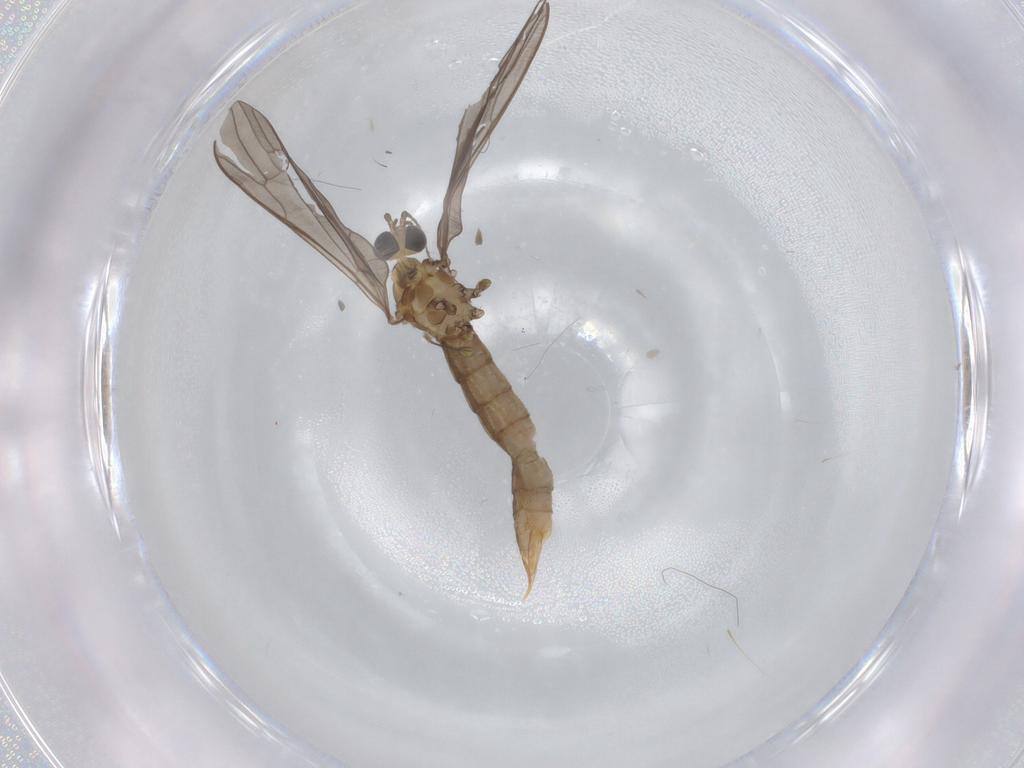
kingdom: Animalia
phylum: Arthropoda
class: Insecta
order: Diptera
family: Limoniidae
